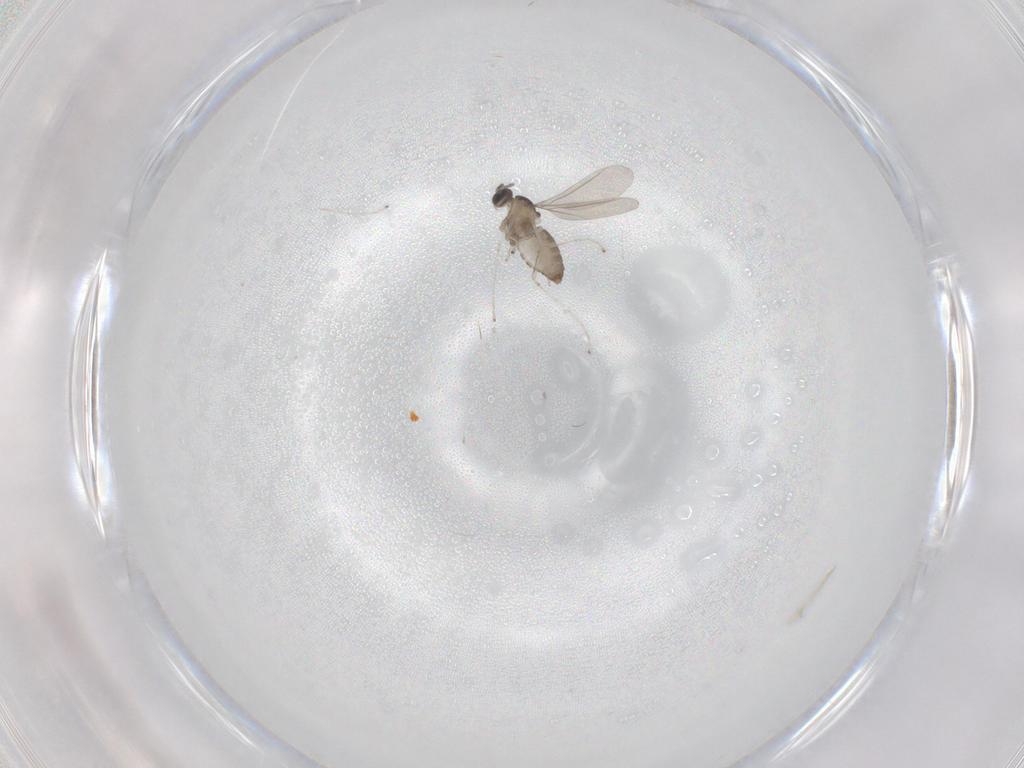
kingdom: Animalia
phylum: Arthropoda
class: Insecta
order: Diptera
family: Cecidomyiidae
